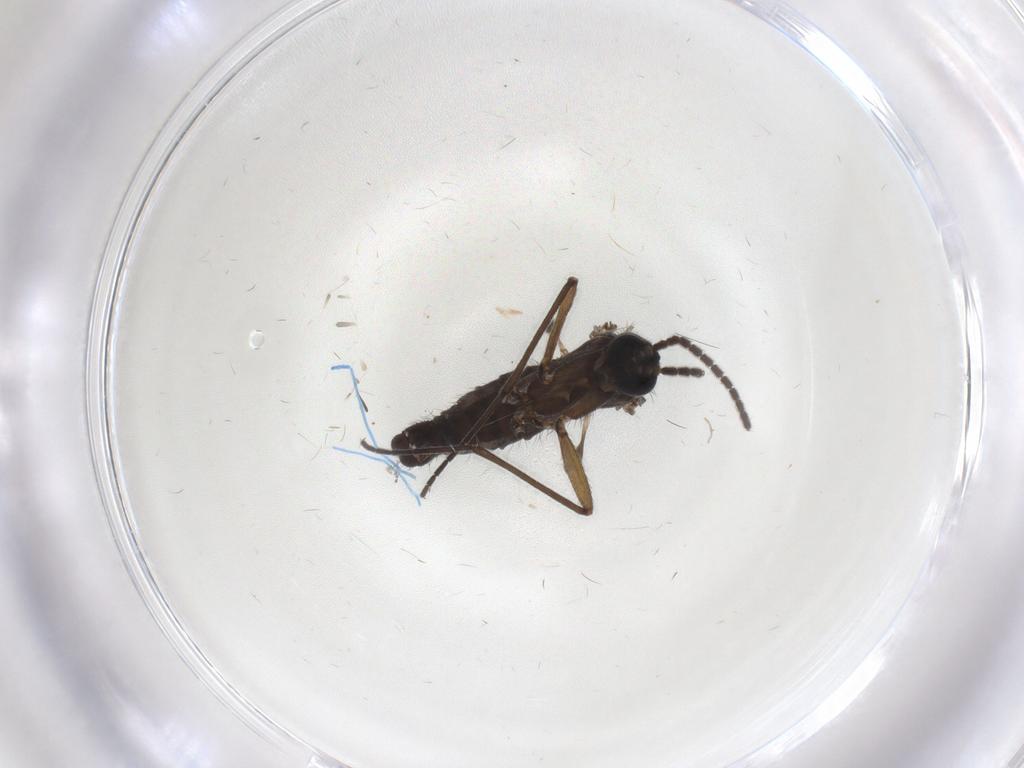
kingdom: Animalia
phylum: Arthropoda
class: Insecta
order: Diptera
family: Sciaridae
